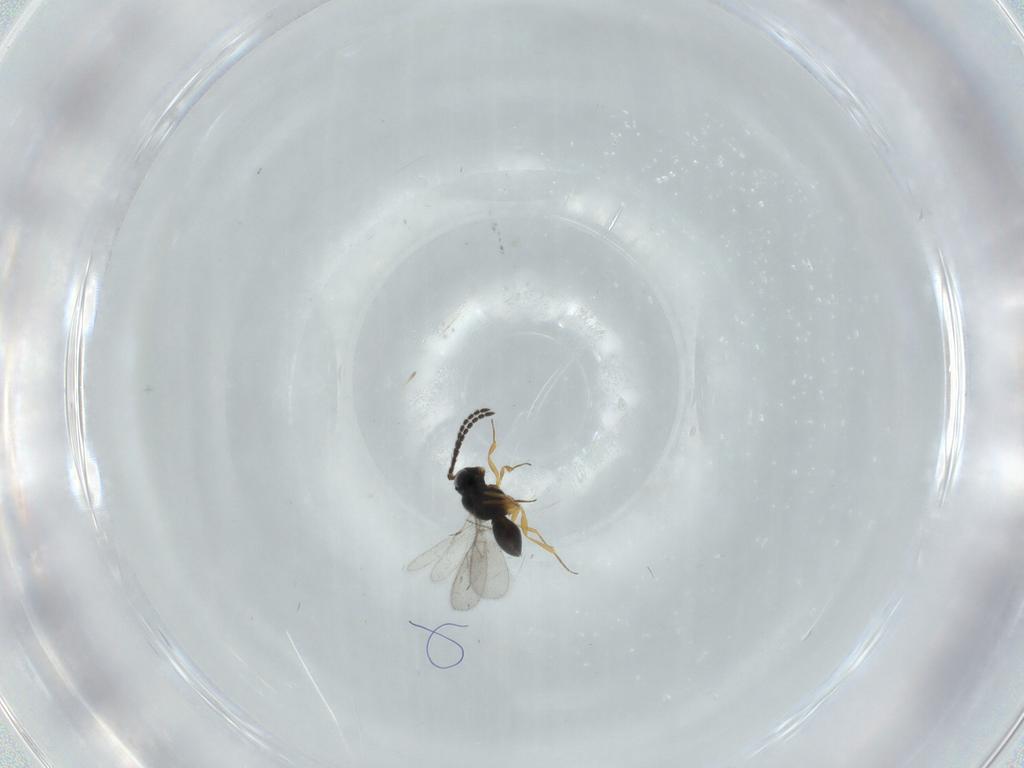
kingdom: Animalia
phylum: Arthropoda
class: Insecta
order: Hymenoptera
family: Scelionidae
